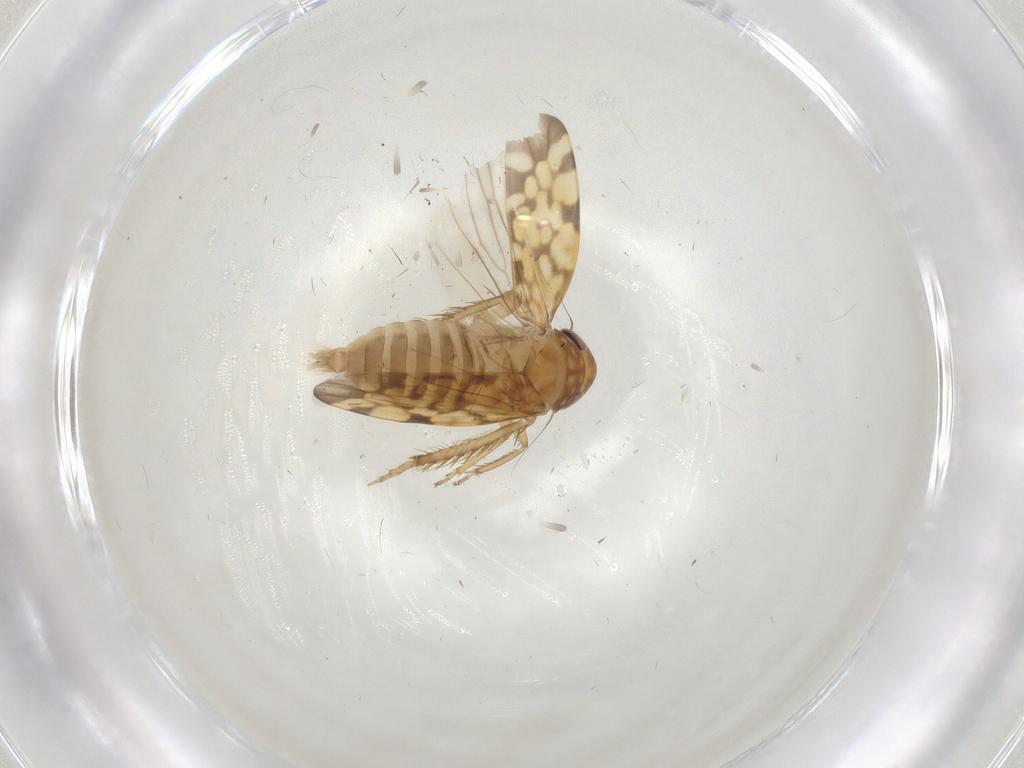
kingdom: Animalia
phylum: Arthropoda
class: Insecta
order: Hemiptera
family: Cicadellidae
